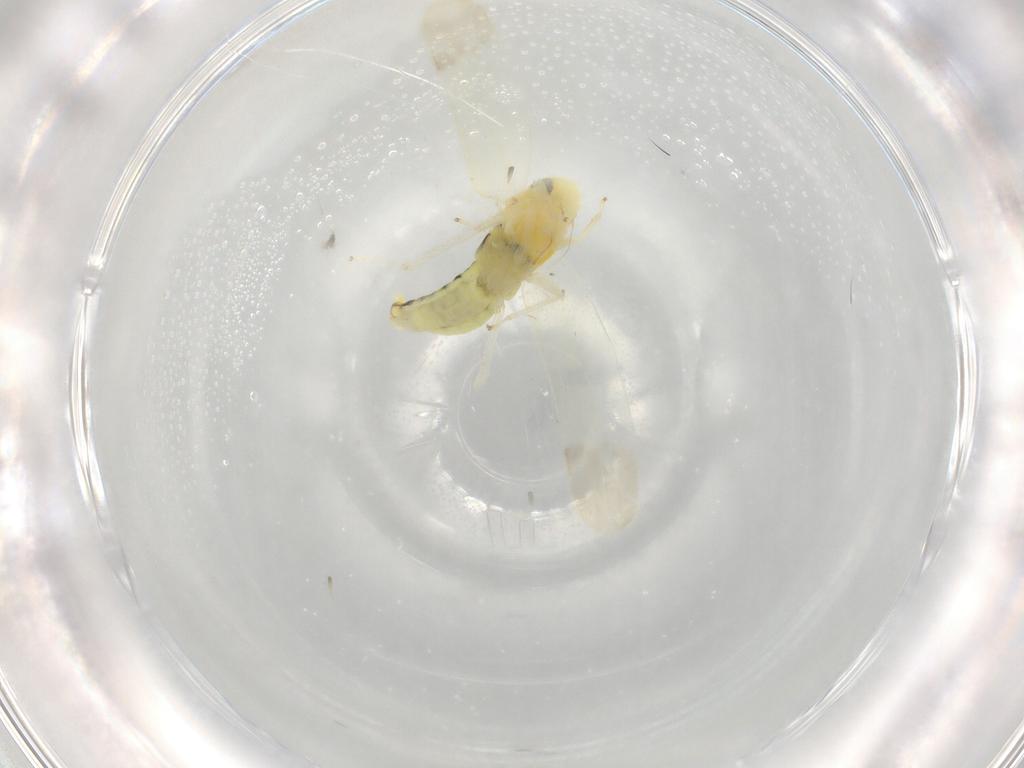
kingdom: Animalia
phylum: Arthropoda
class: Insecta
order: Hemiptera
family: Cicadellidae
